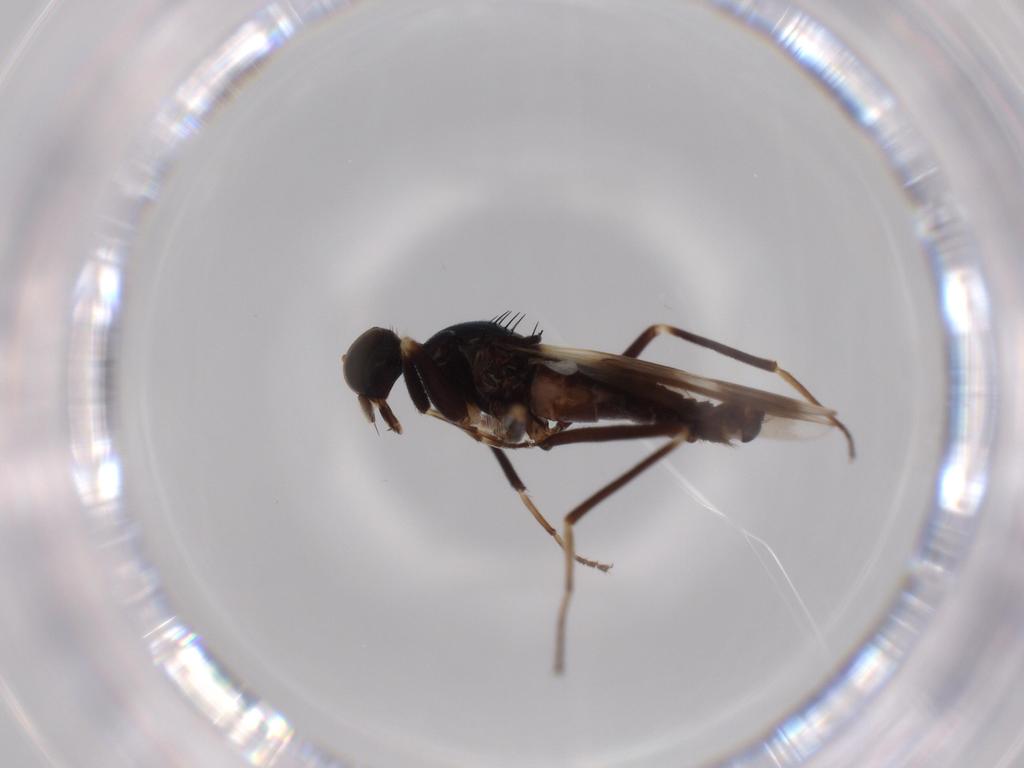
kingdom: Animalia
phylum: Arthropoda
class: Insecta
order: Diptera
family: Hybotidae
